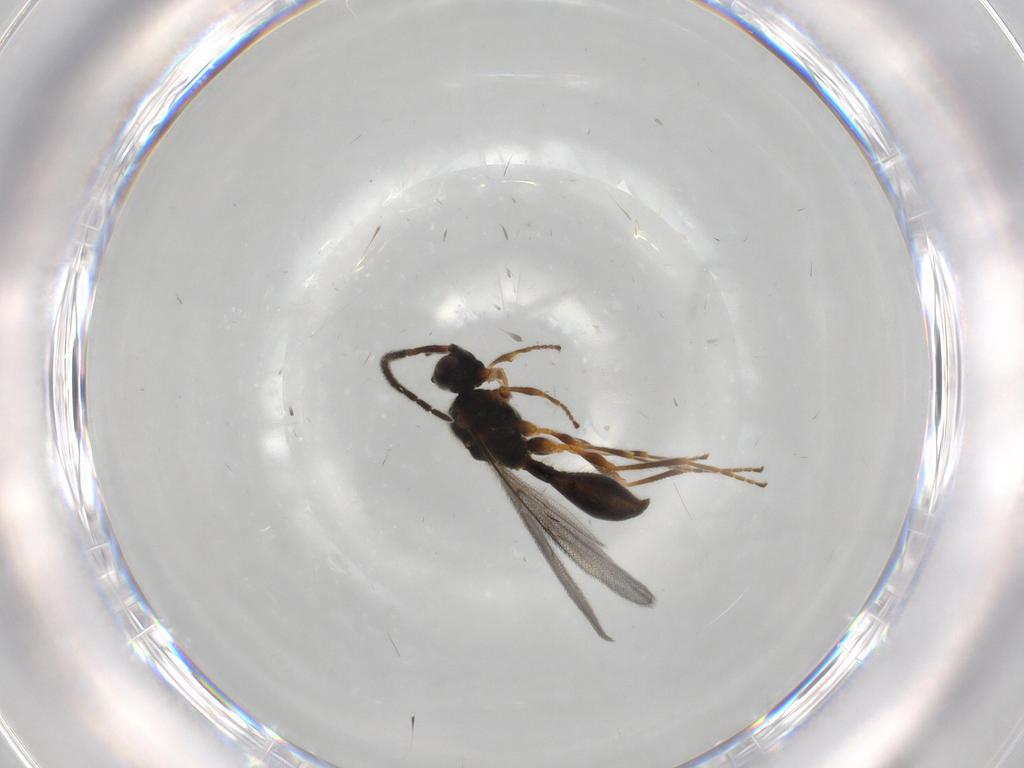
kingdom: Animalia
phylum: Arthropoda
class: Insecta
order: Hymenoptera
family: Diapriidae
